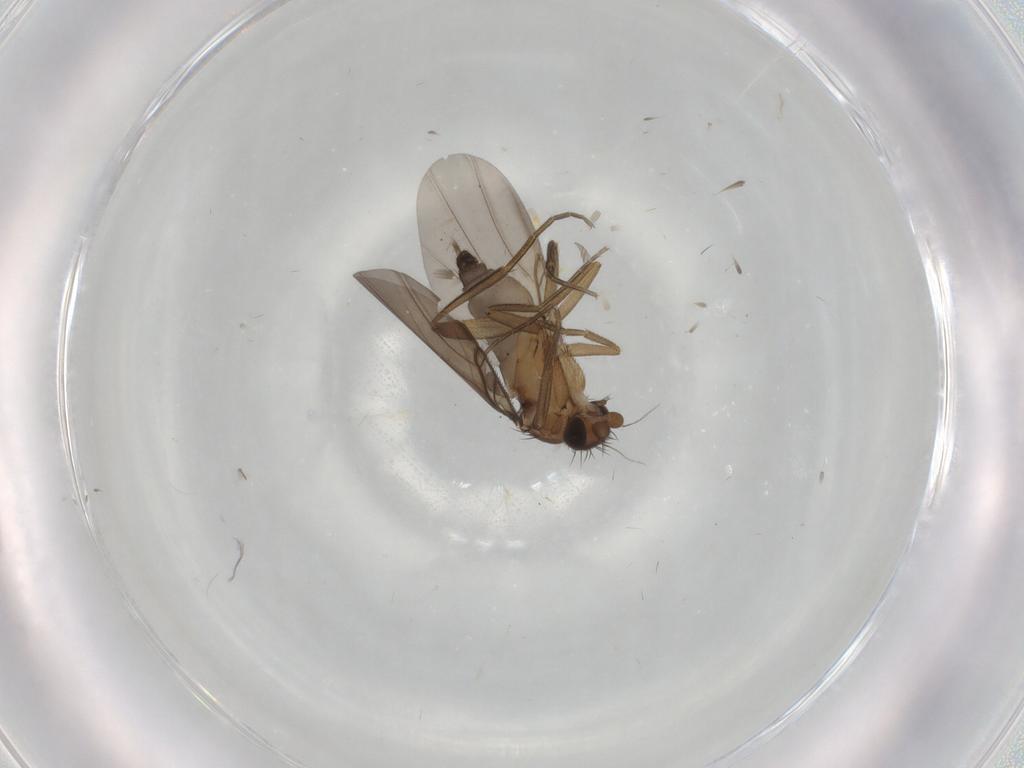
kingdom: Animalia
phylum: Arthropoda
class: Insecta
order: Diptera
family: Phoridae
